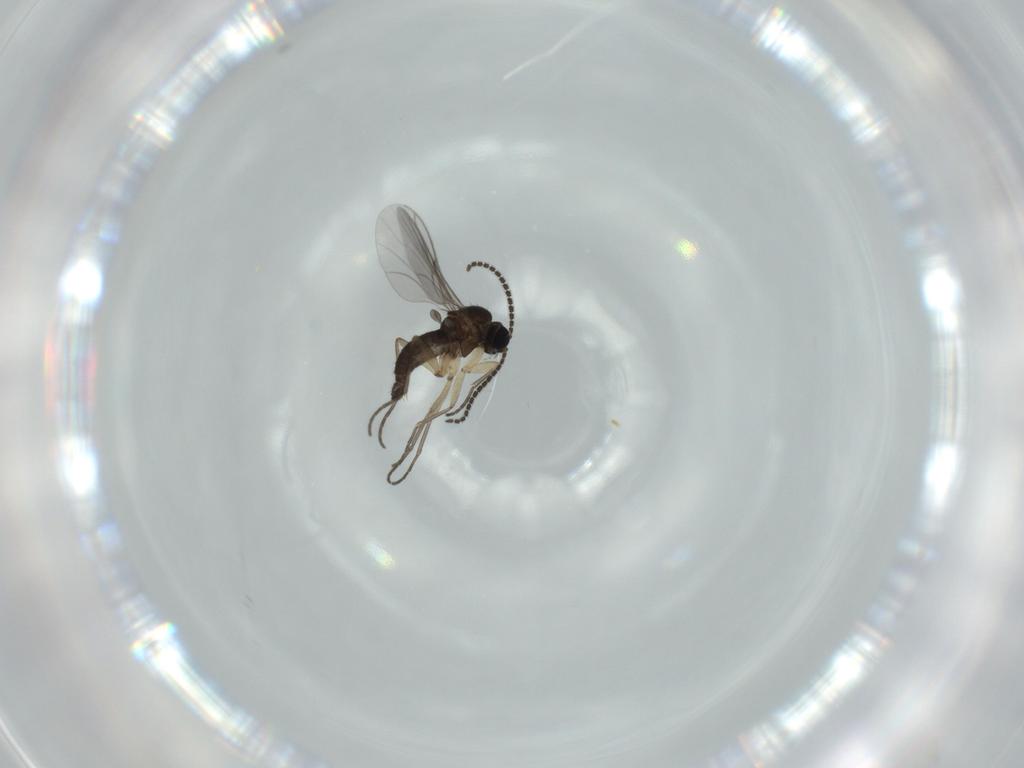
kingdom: Animalia
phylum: Arthropoda
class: Insecta
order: Diptera
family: Sciaridae
